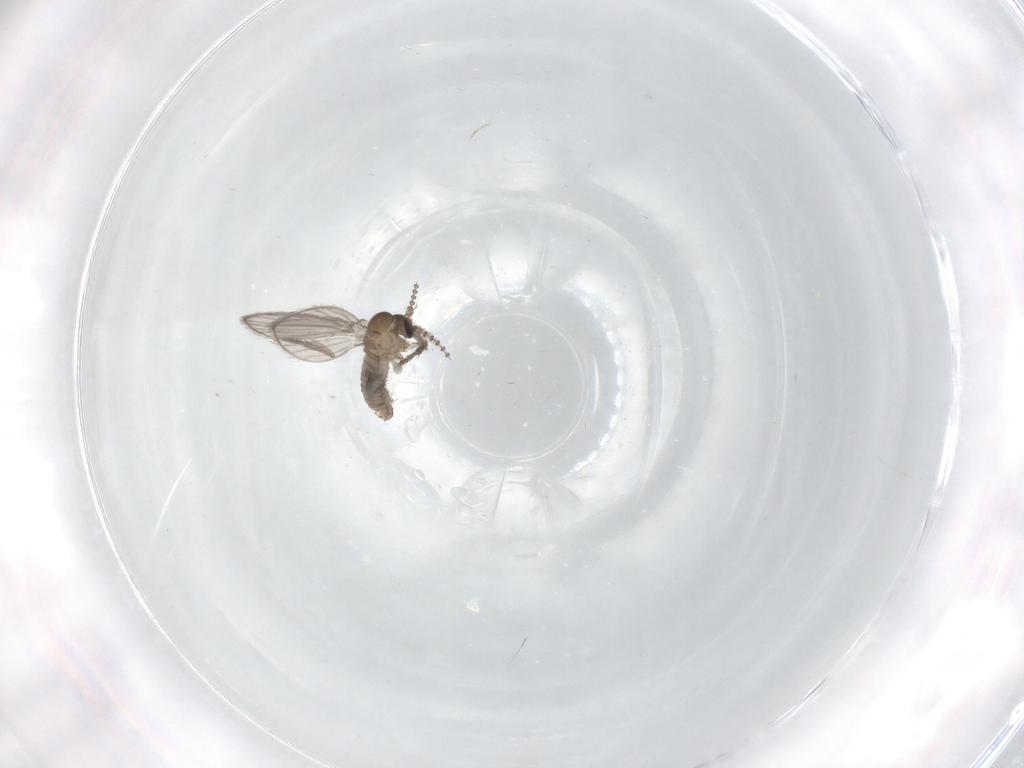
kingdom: Animalia
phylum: Arthropoda
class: Insecta
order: Diptera
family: Psychodidae
